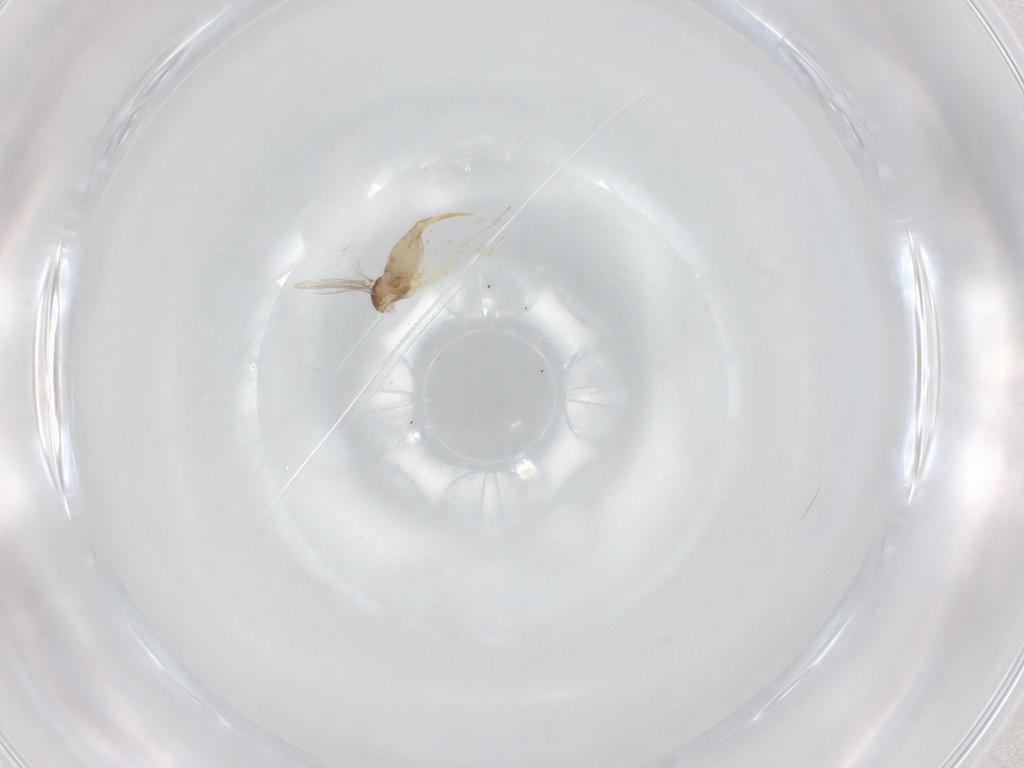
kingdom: Animalia
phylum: Arthropoda
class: Insecta
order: Diptera
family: Cecidomyiidae
